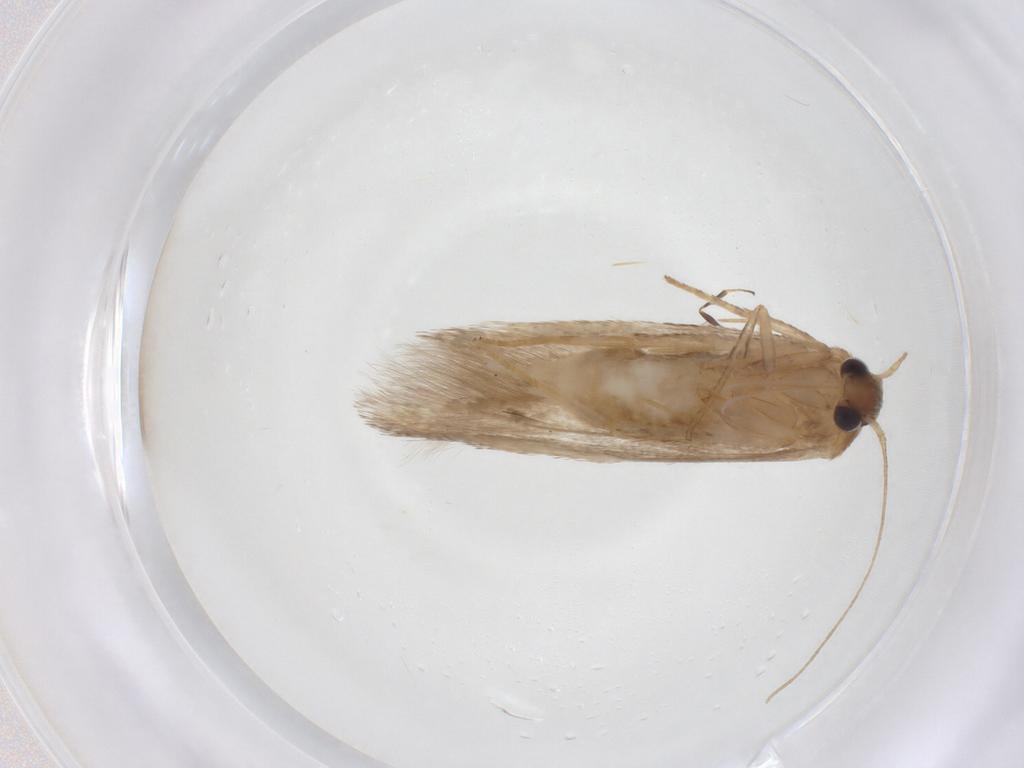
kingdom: Animalia
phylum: Arthropoda
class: Insecta
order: Lepidoptera
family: Blastobasidae
